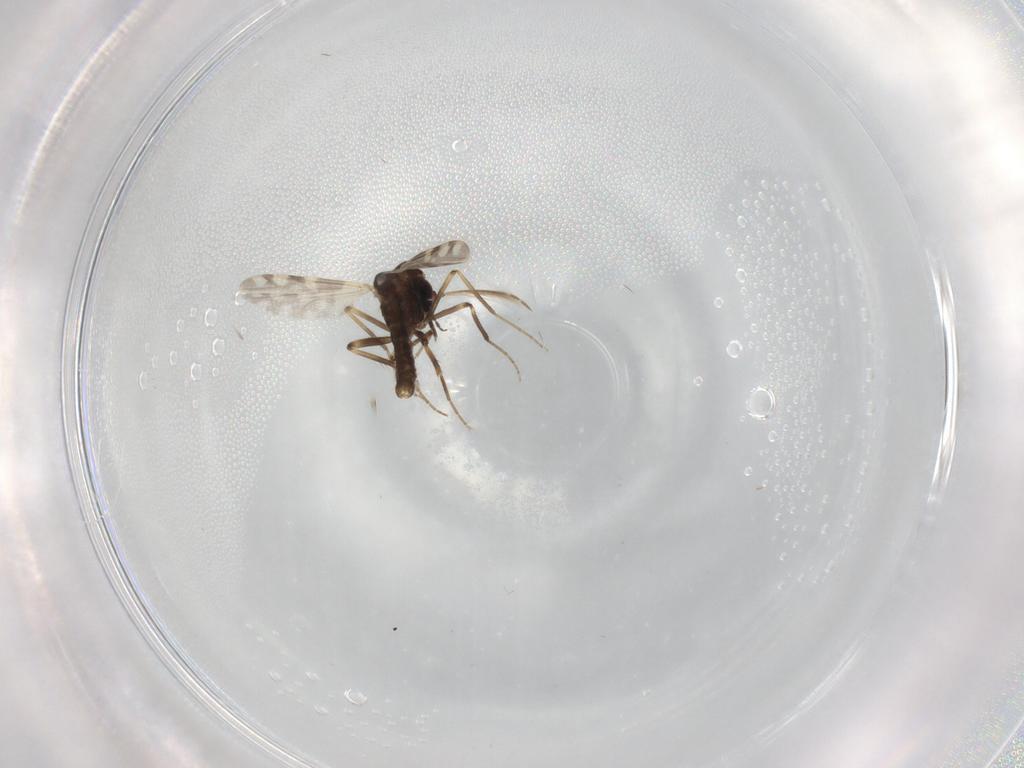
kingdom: Animalia
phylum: Arthropoda
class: Insecta
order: Diptera
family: Ceratopogonidae
